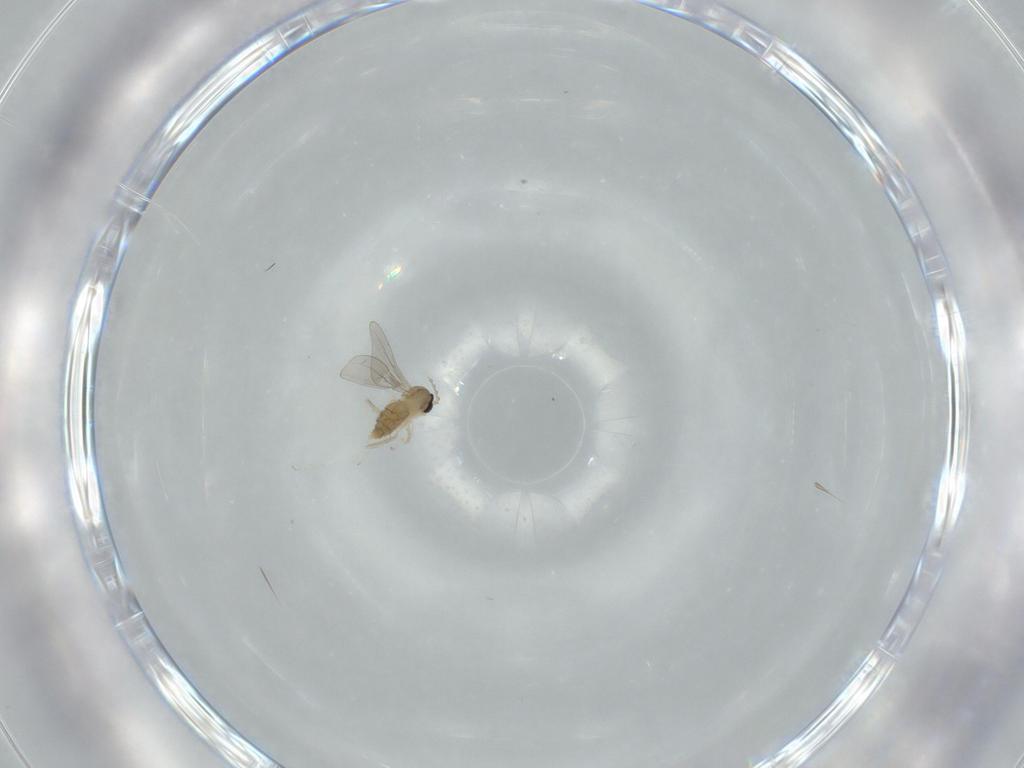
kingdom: Animalia
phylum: Arthropoda
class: Insecta
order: Diptera
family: Cecidomyiidae
